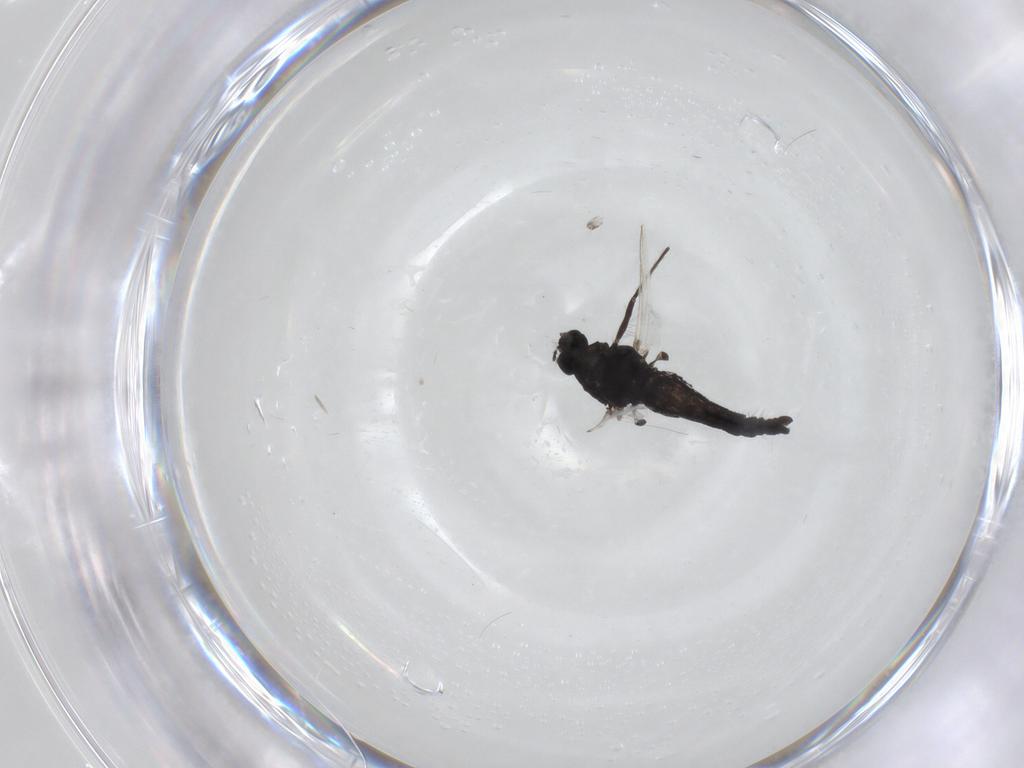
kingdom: Animalia
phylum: Arthropoda
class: Insecta
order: Diptera
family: Chironomidae
